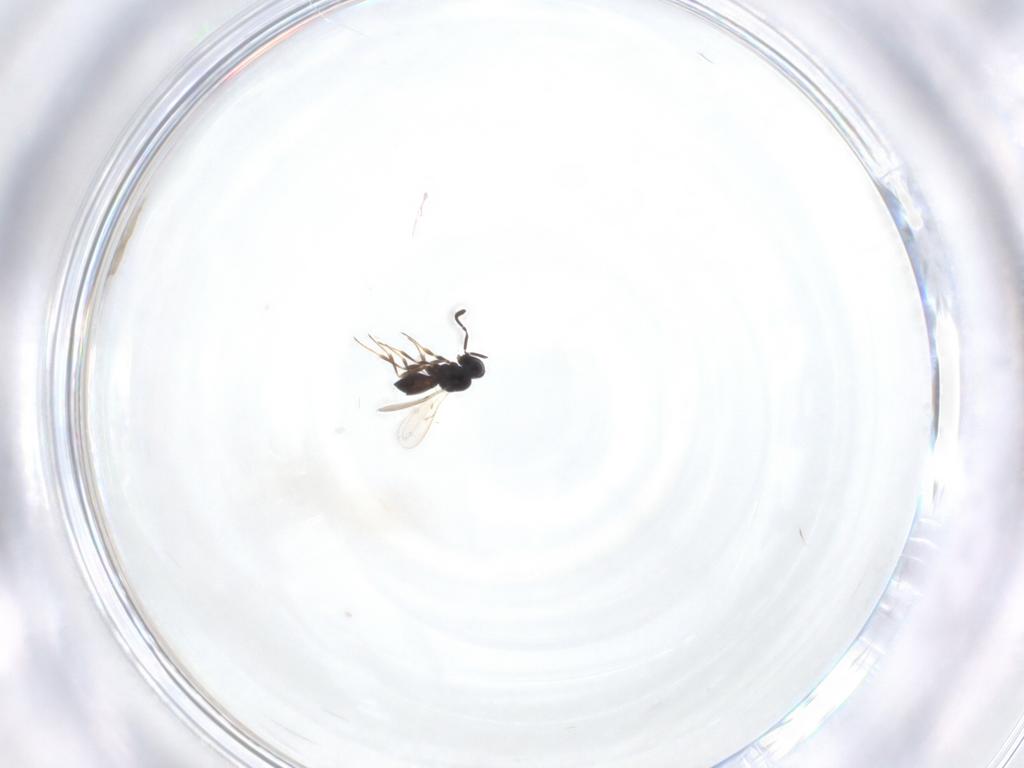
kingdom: Animalia
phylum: Arthropoda
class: Insecta
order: Hymenoptera
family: Scelionidae
